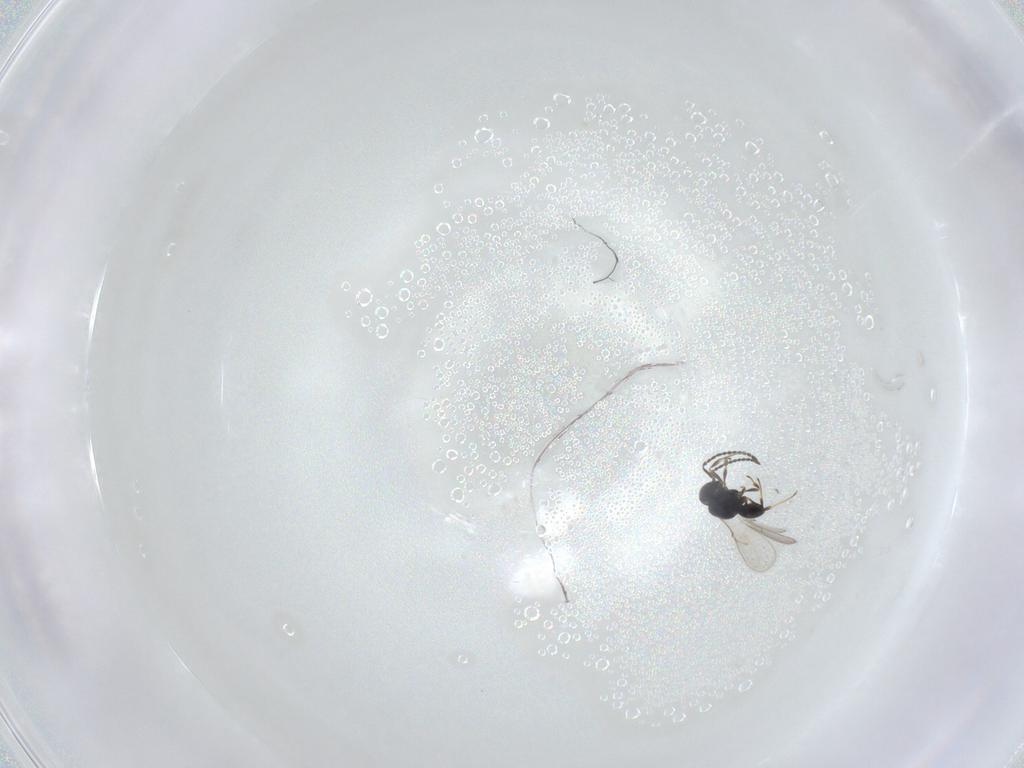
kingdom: Animalia
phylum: Arthropoda
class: Insecta
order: Hymenoptera
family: Scelionidae
